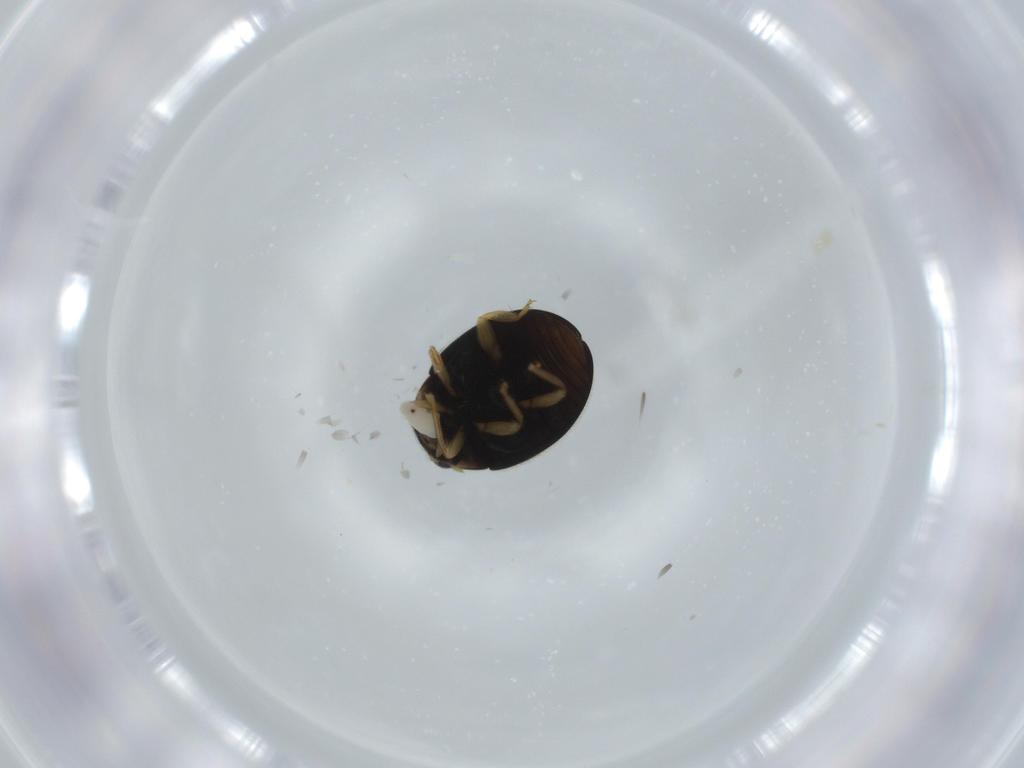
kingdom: Animalia
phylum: Arthropoda
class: Insecta
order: Coleoptera
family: Coccinellidae
